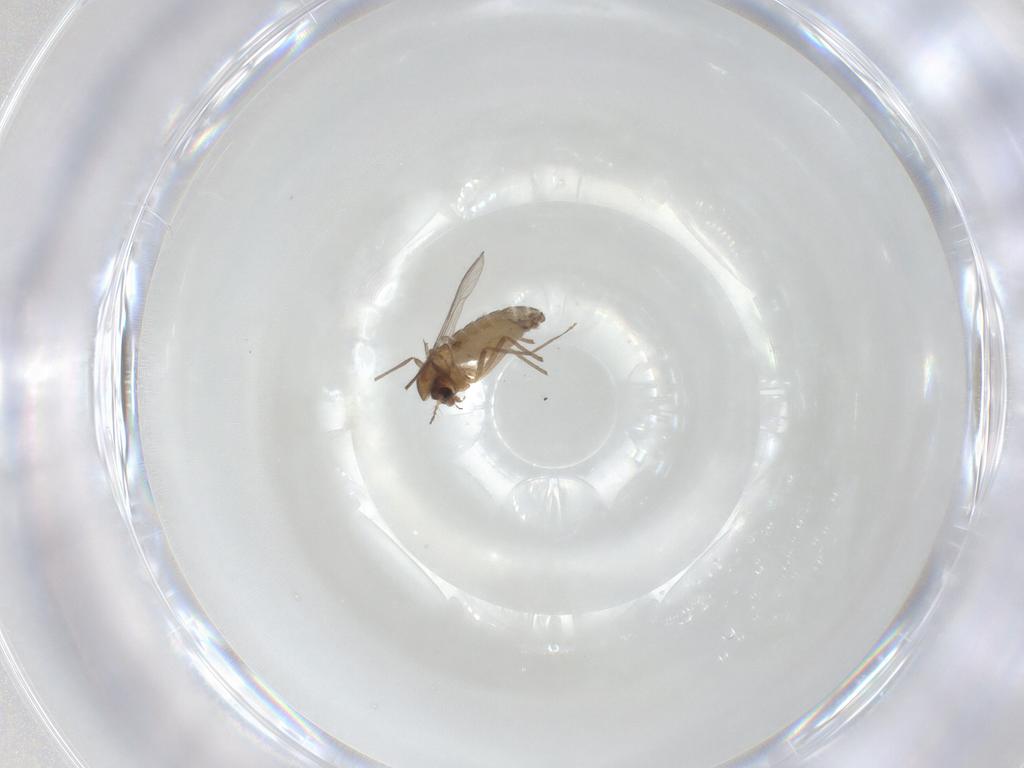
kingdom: Animalia
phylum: Arthropoda
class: Insecta
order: Diptera
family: Chironomidae
